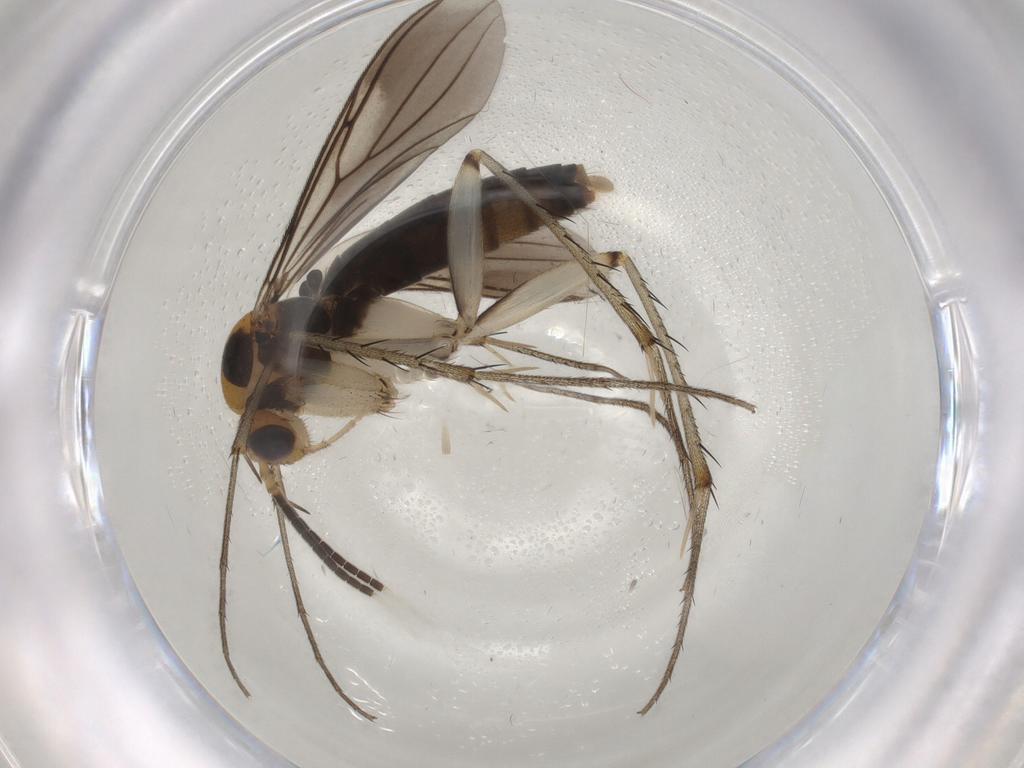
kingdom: Animalia
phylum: Arthropoda
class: Insecta
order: Diptera
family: Mycetophilidae
